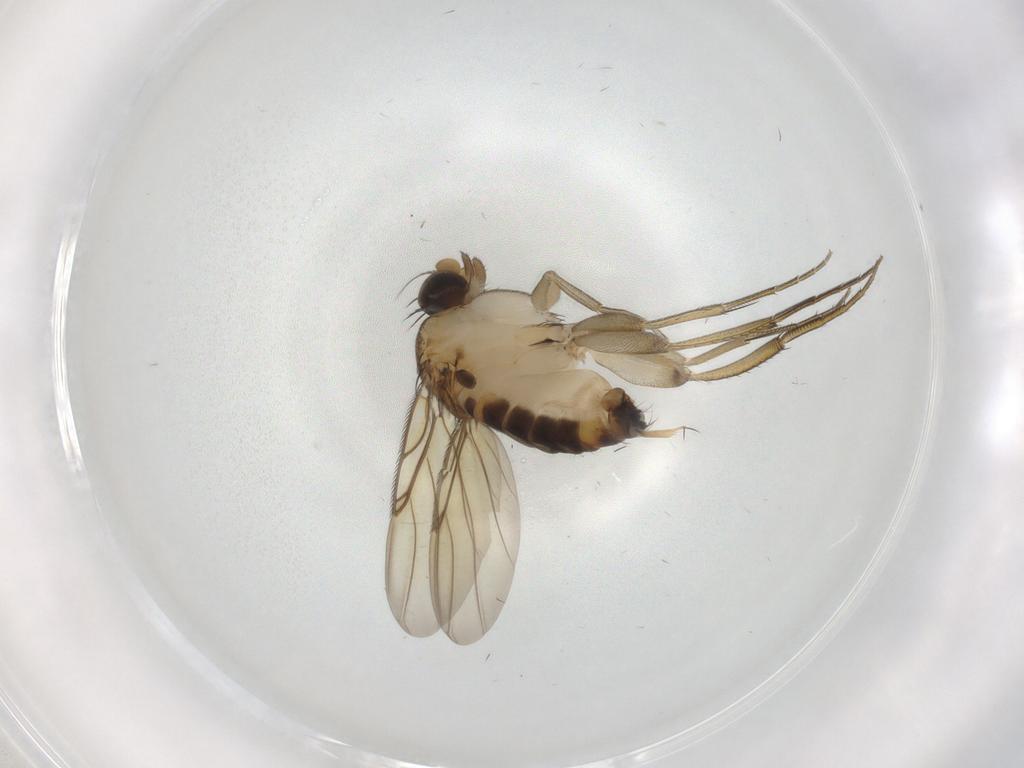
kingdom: Animalia
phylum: Arthropoda
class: Insecta
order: Diptera
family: Phoridae
